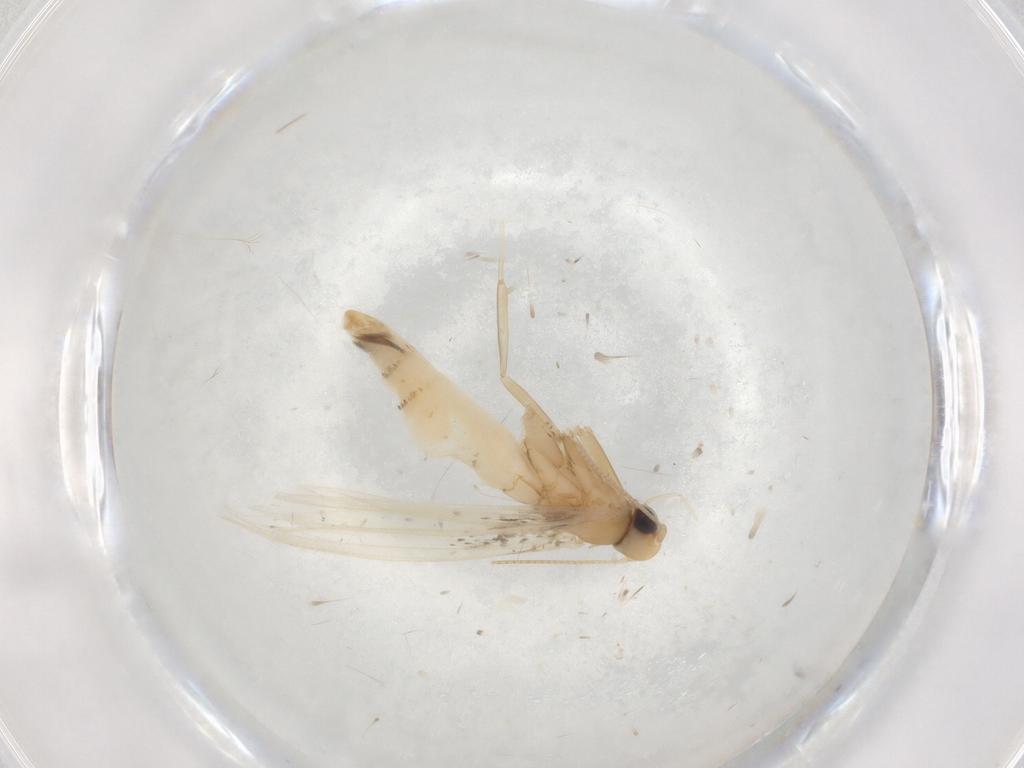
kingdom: Animalia
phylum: Arthropoda
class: Insecta
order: Lepidoptera
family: Gracillariidae
